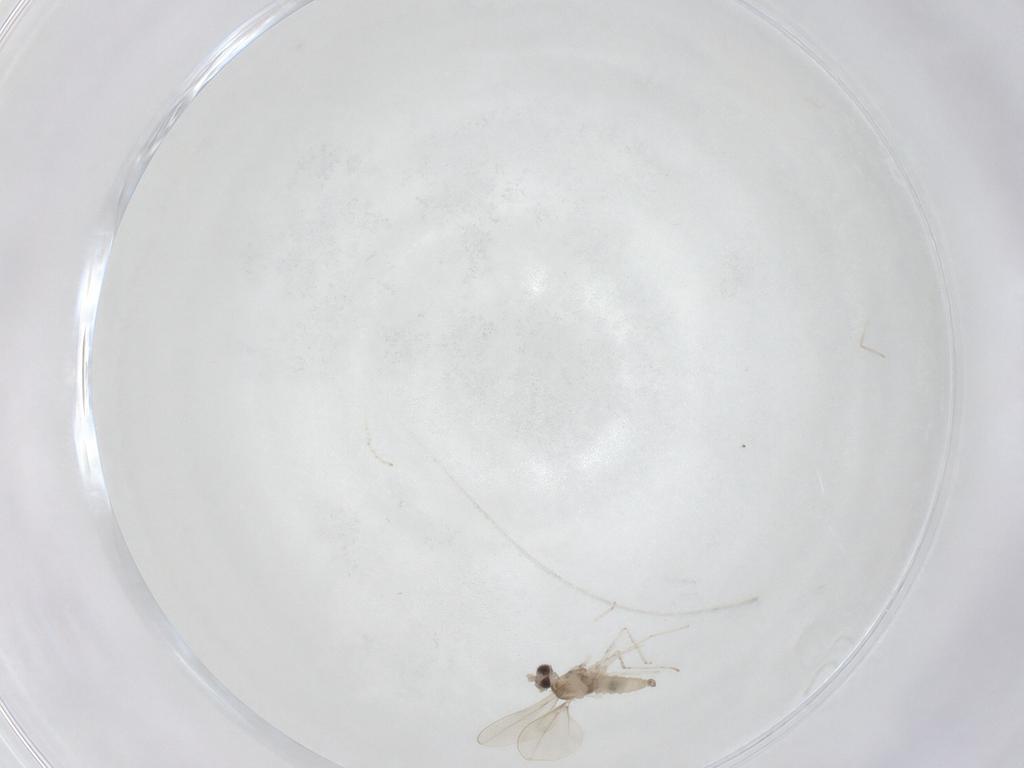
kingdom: Animalia
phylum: Arthropoda
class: Insecta
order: Diptera
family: Cecidomyiidae
